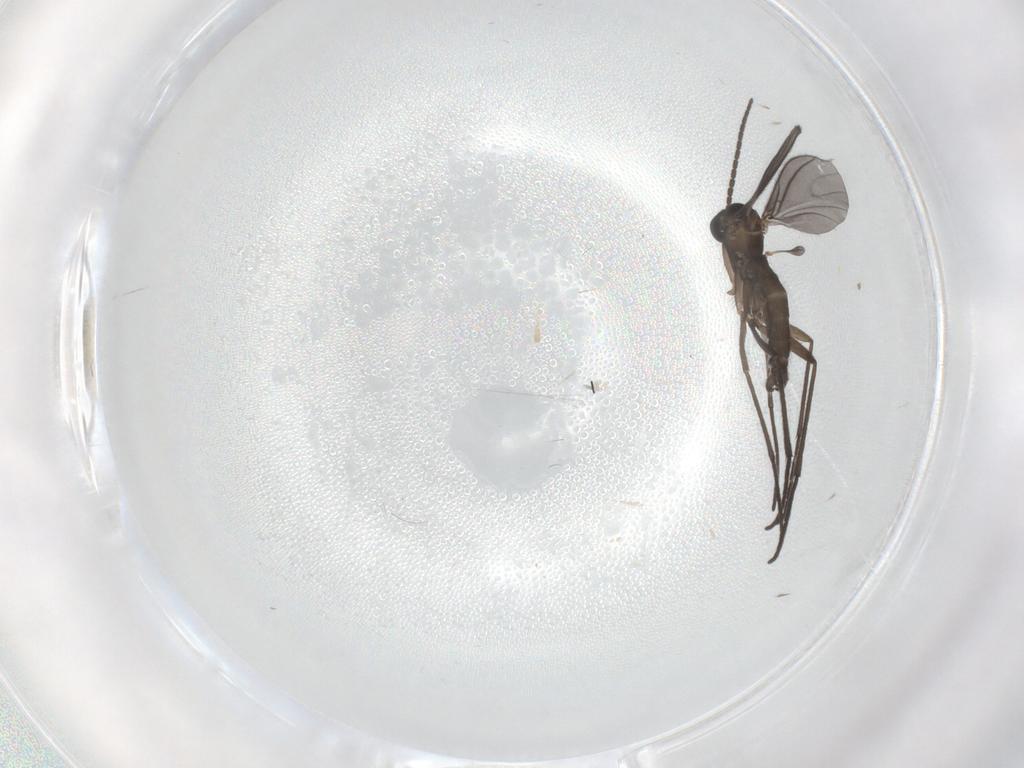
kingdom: Animalia
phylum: Arthropoda
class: Insecta
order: Diptera
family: Sciaridae
